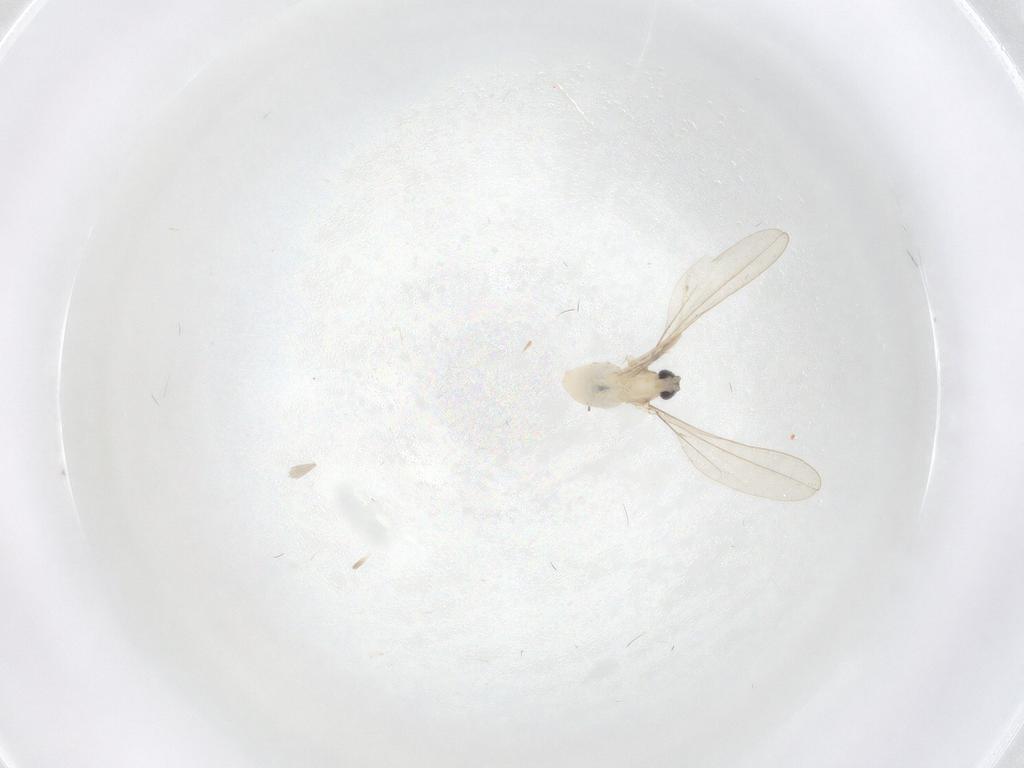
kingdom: Animalia
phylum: Arthropoda
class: Insecta
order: Diptera
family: Cecidomyiidae
